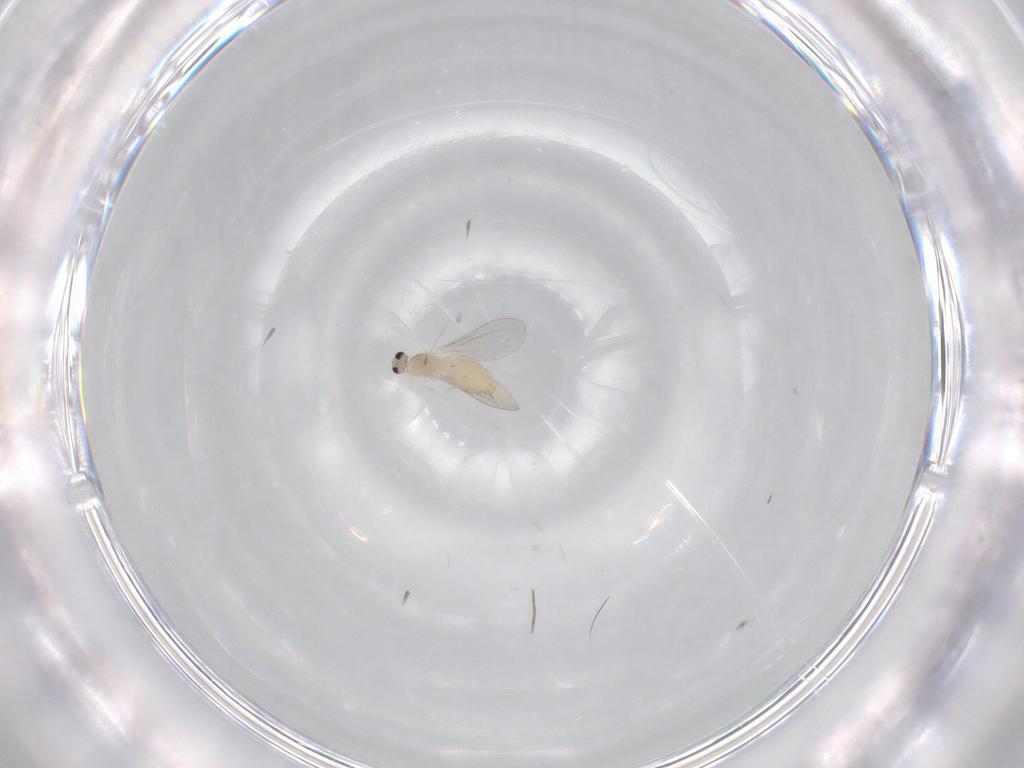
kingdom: Animalia
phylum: Arthropoda
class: Insecta
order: Diptera
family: Cecidomyiidae
